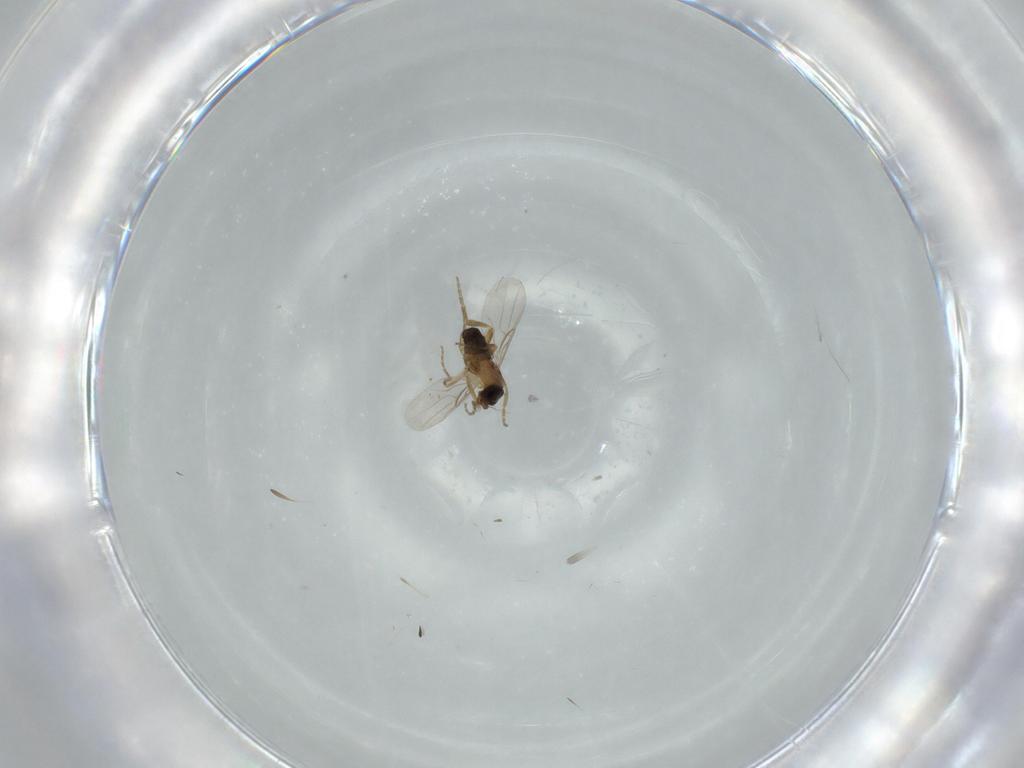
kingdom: Animalia
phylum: Arthropoda
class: Insecta
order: Diptera
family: Phoridae
